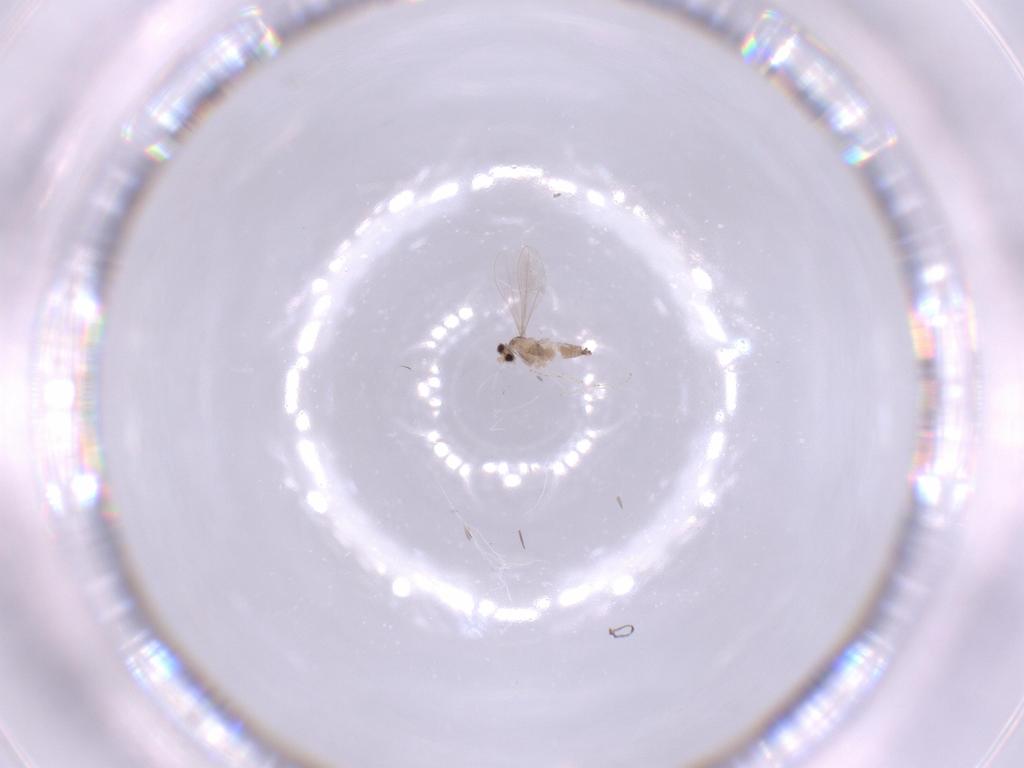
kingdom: Animalia
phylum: Arthropoda
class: Insecta
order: Diptera
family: Cecidomyiidae
